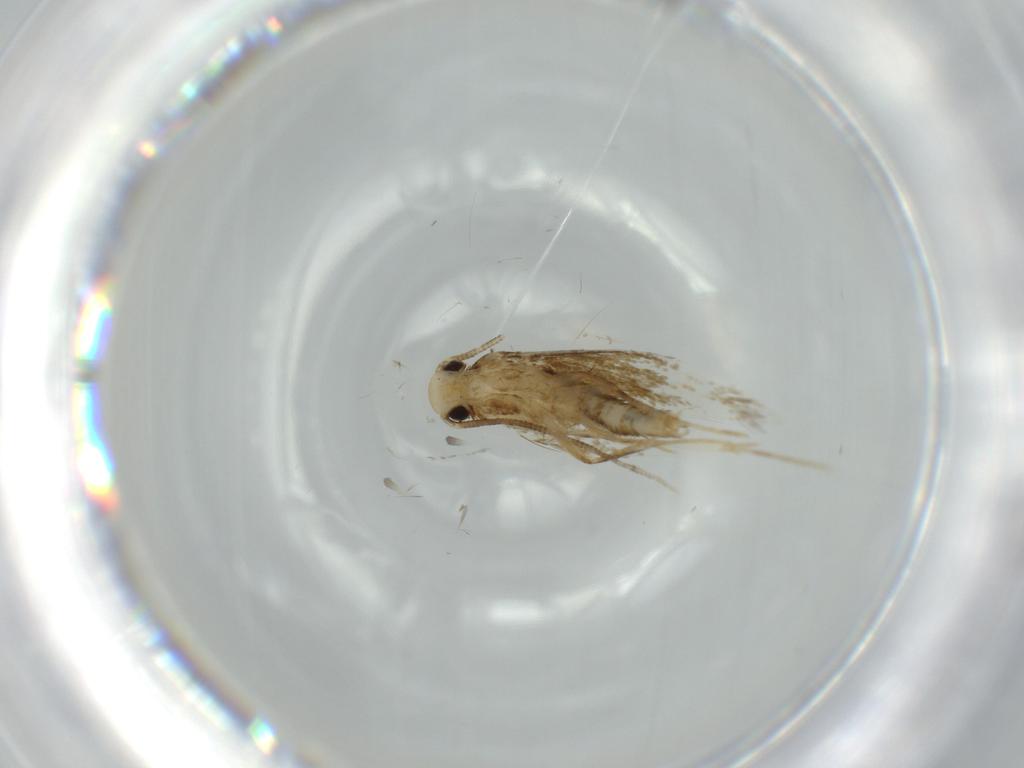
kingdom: Animalia
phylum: Arthropoda
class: Insecta
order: Lepidoptera
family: Tineidae
